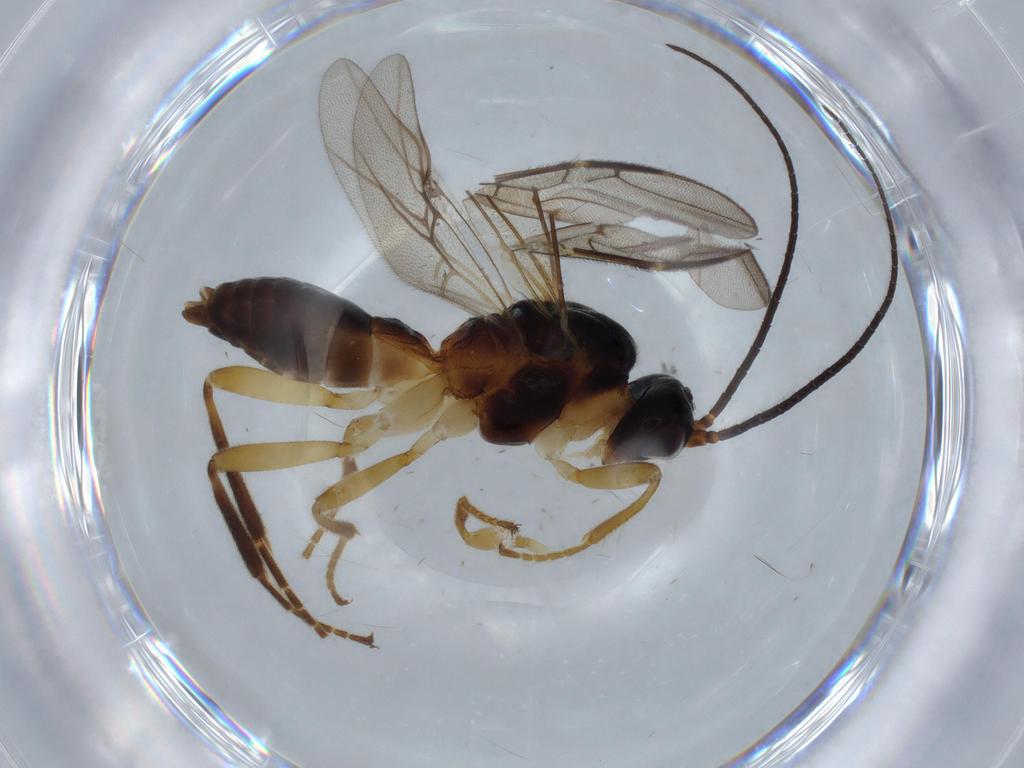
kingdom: Animalia
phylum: Arthropoda
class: Insecta
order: Hymenoptera
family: Braconidae
